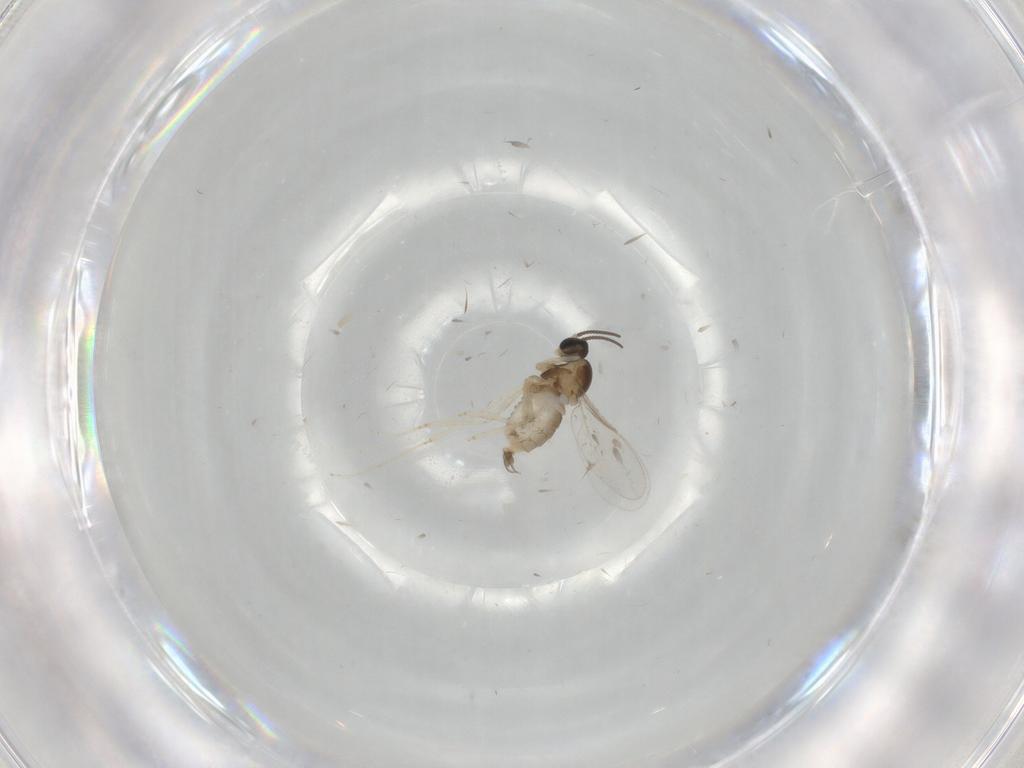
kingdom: Animalia
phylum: Arthropoda
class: Insecta
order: Diptera
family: Cecidomyiidae
